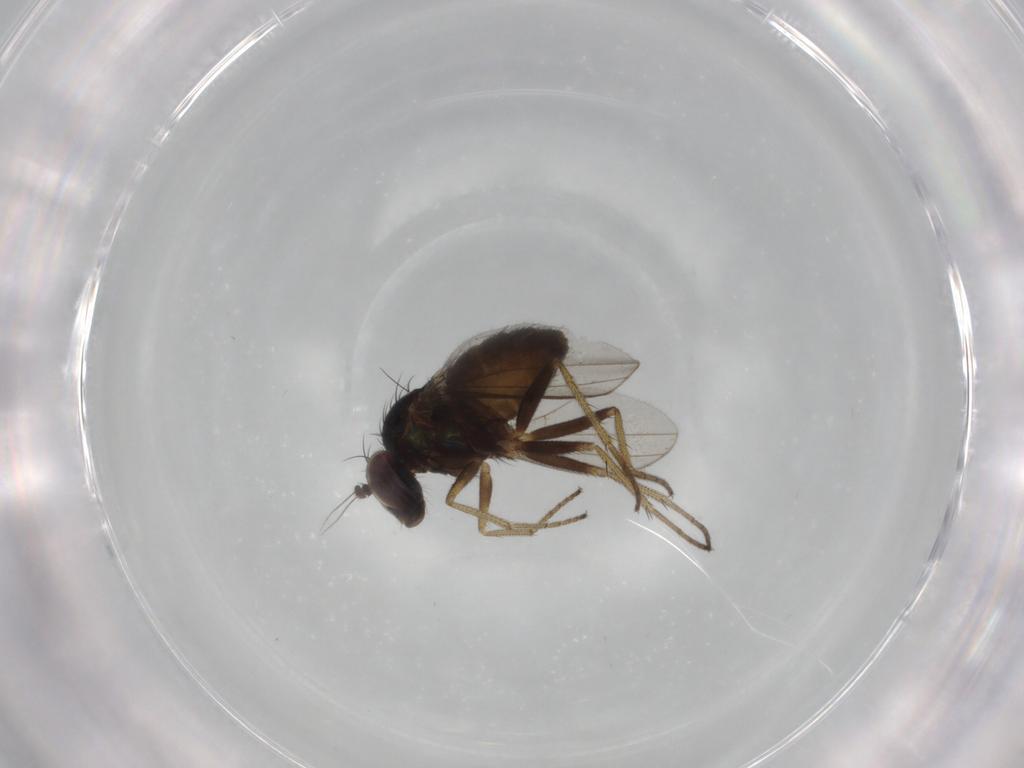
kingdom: Animalia
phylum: Arthropoda
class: Insecta
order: Diptera
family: Dolichopodidae
